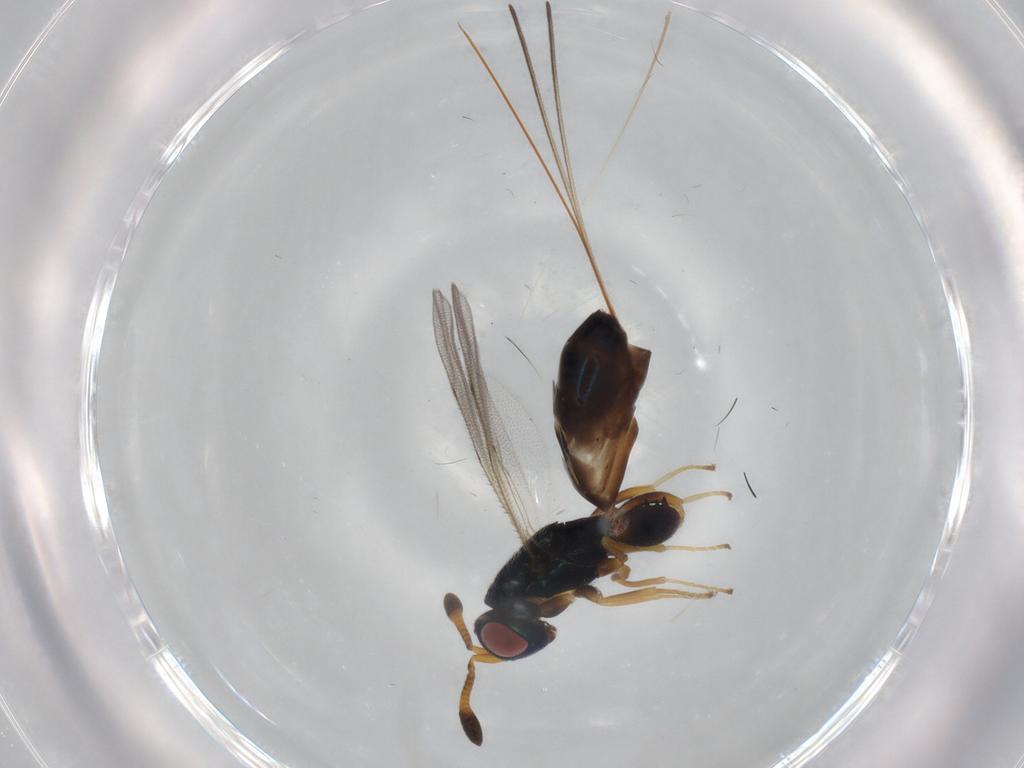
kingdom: Animalia
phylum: Arthropoda
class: Insecta
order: Hymenoptera
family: Torymidae
